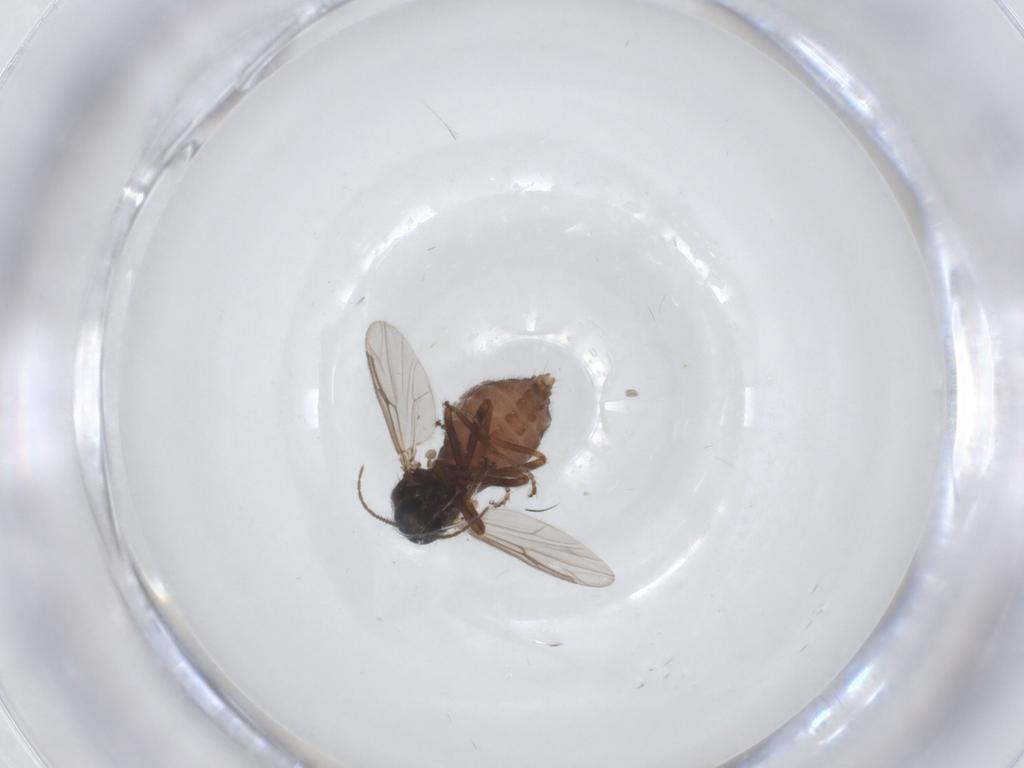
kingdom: Animalia
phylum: Arthropoda
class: Insecta
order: Diptera
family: Ceratopogonidae
